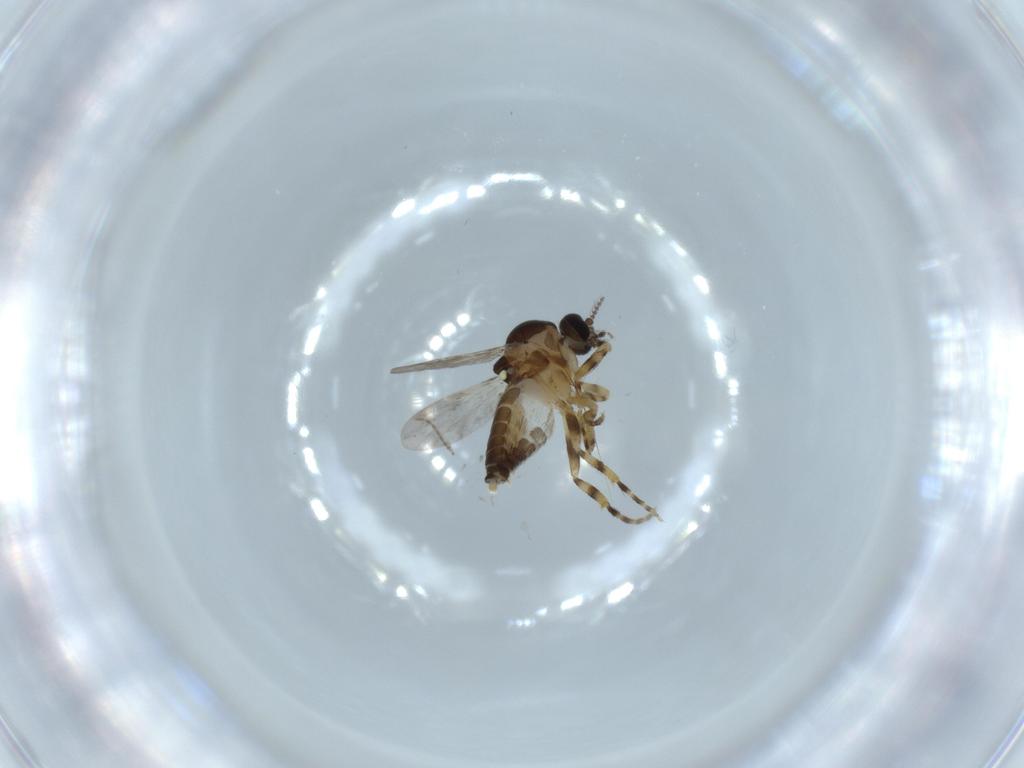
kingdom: Animalia
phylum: Arthropoda
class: Insecta
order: Diptera
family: Ceratopogonidae
